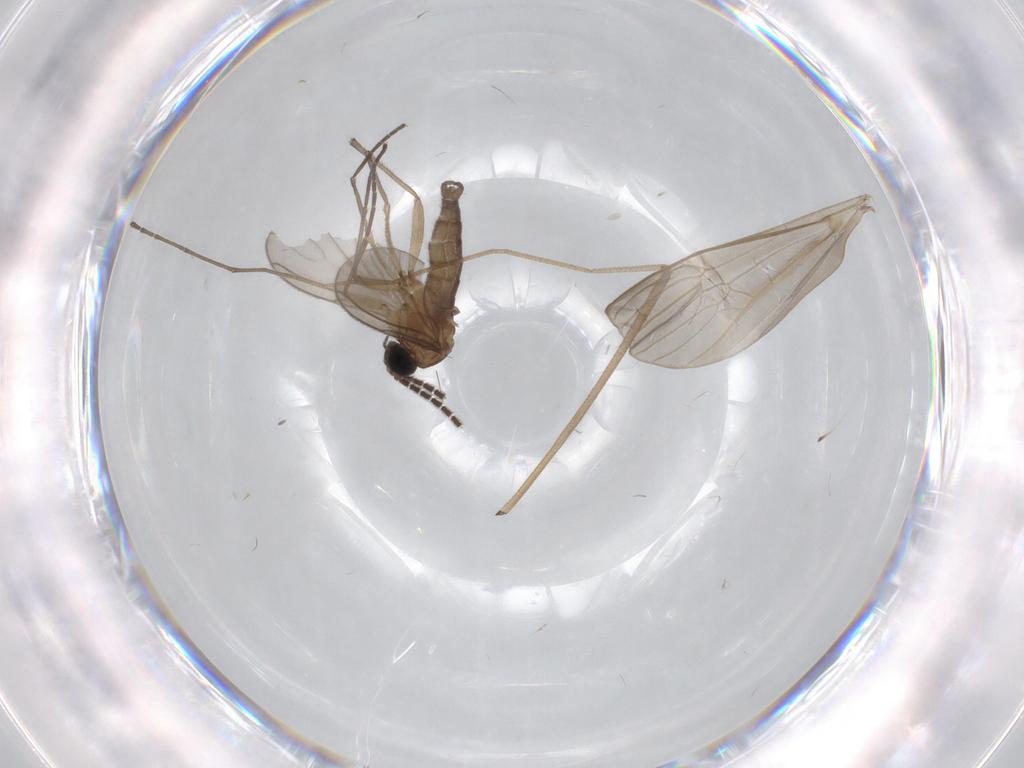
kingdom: Animalia
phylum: Arthropoda
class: Insecta
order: Diptera
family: Limoniidae
